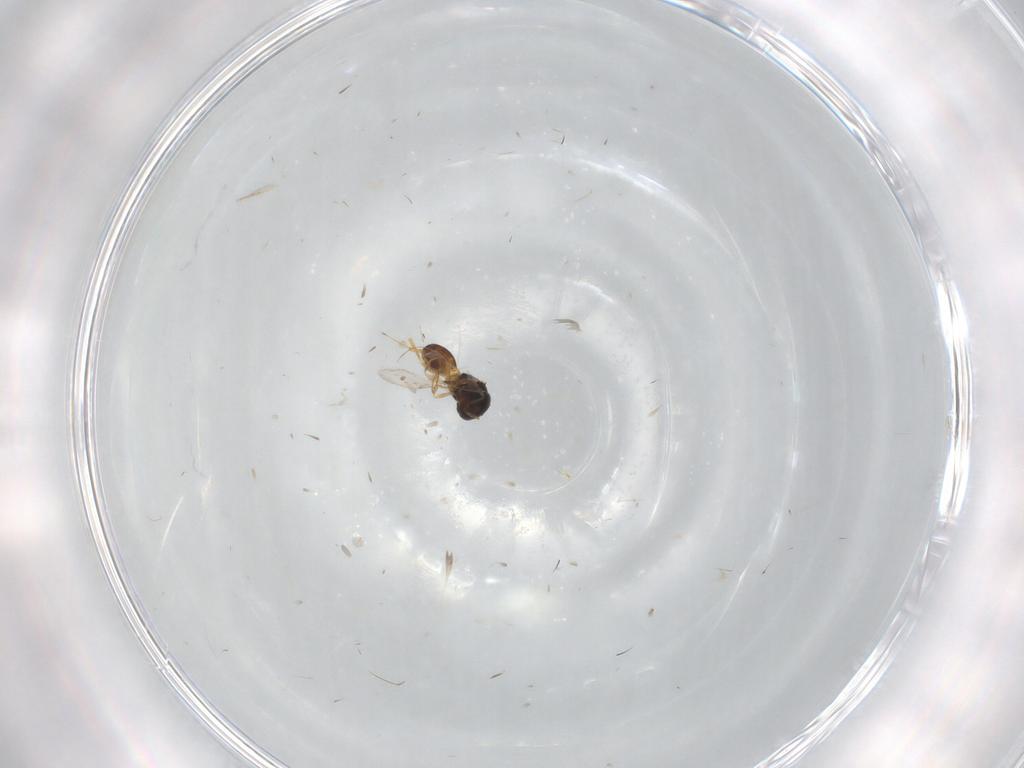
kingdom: Animalia
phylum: Arthropoda
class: Insecta
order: Hymenoptera
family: Scelionidae
